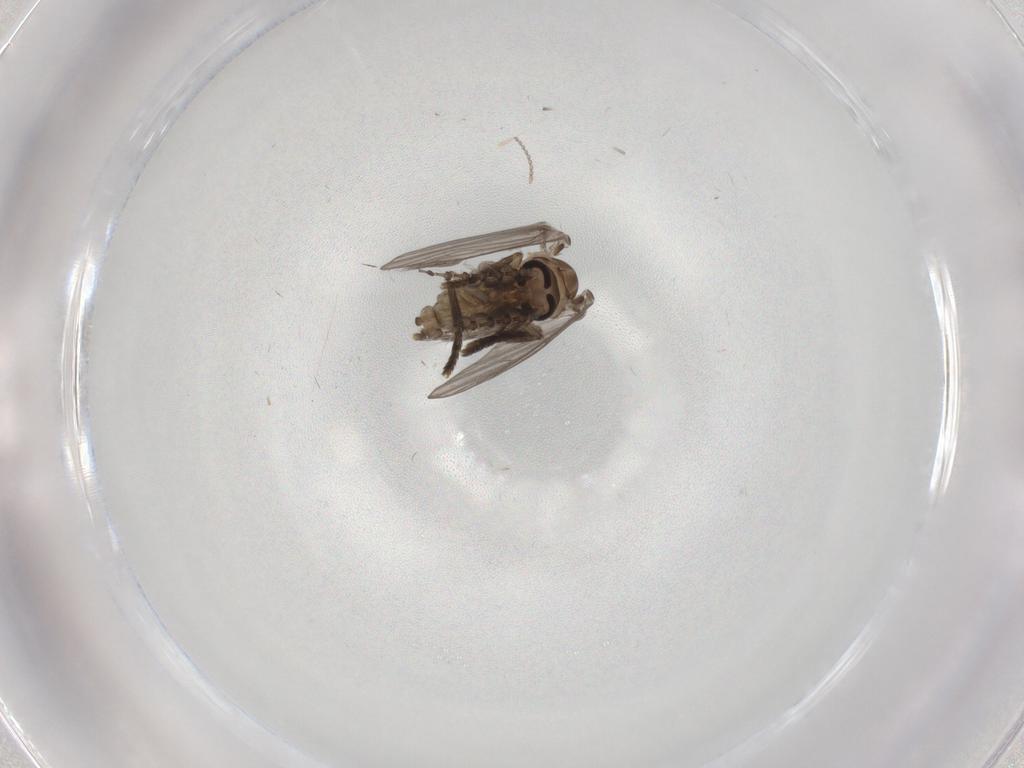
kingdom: Animalia
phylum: Arthropoda
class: Insecta
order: Diptera
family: Psychodidae
